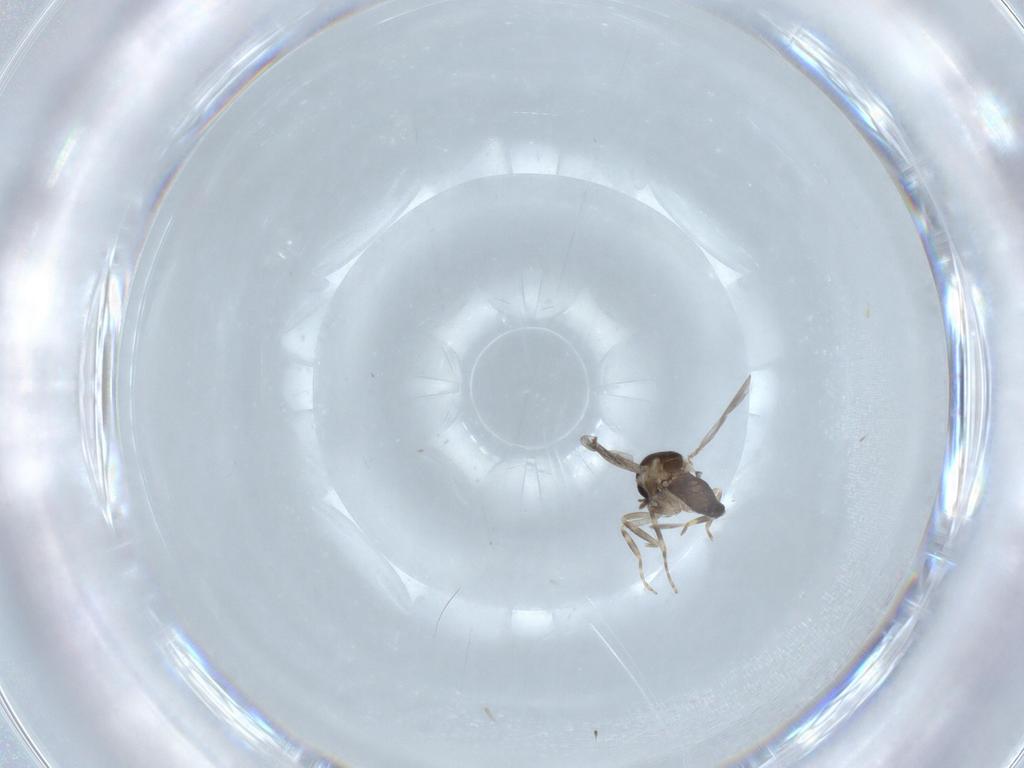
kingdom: Animalia
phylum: Arthropoda
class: Insecta
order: Diptera
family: Ceratopogonidae
